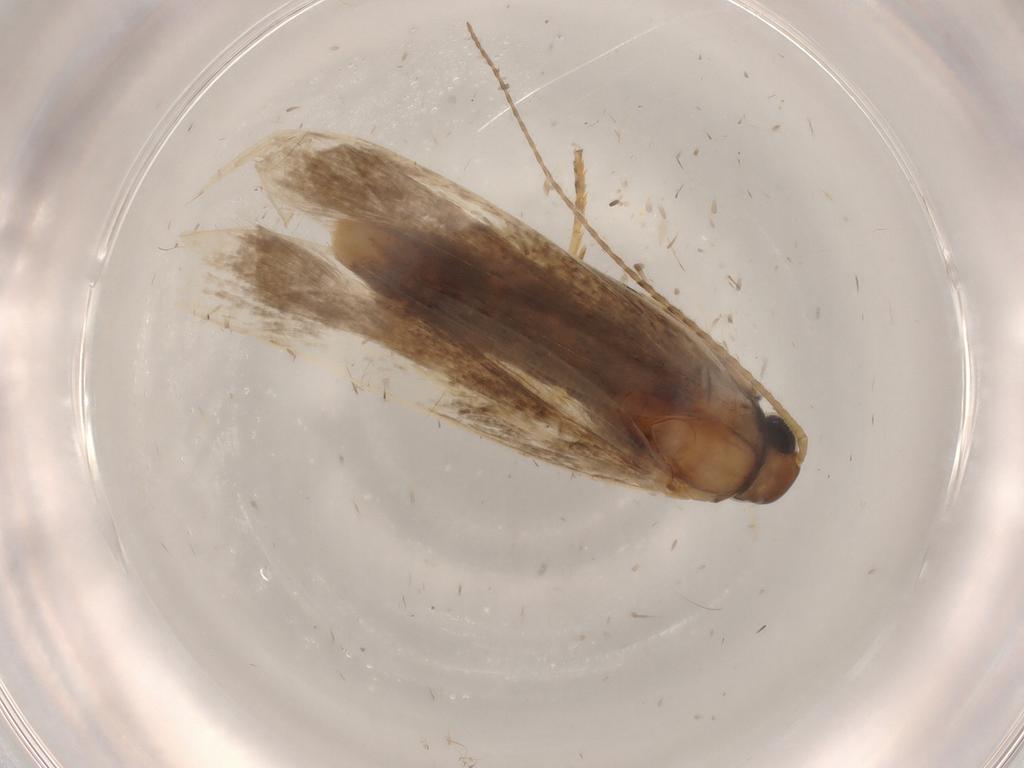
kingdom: Animalia
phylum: Arthropoda
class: Insecta
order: Lepidoptera
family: Gelechiidae
